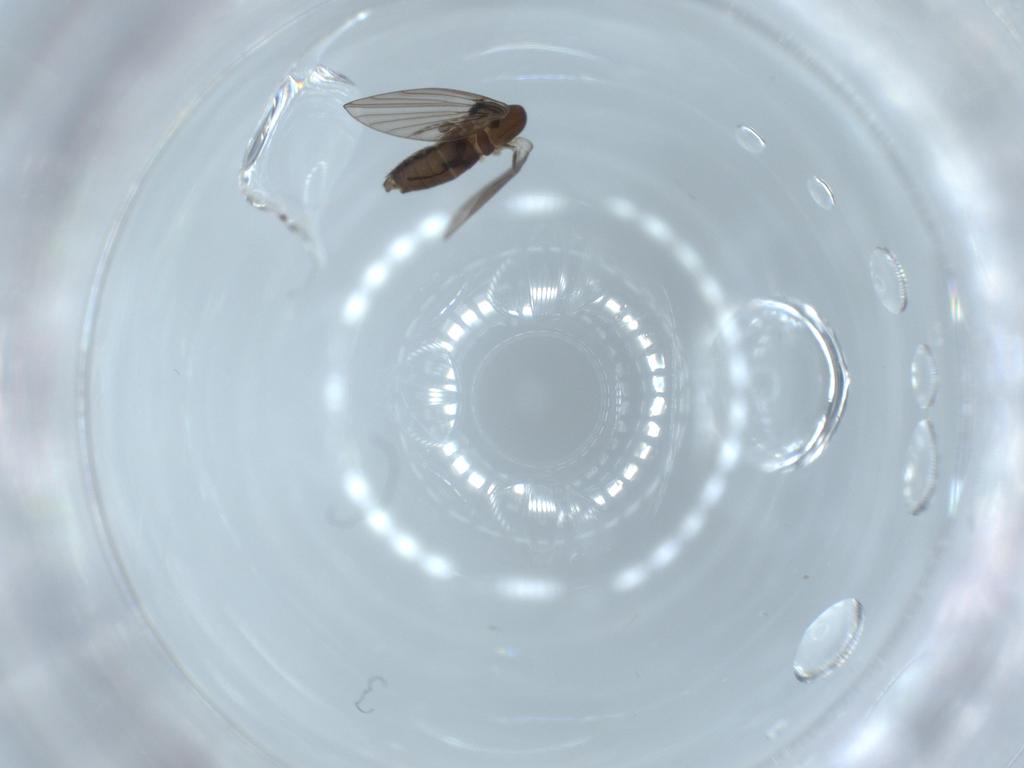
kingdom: Animalia
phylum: Arthropoda
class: Insecta
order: Diptera
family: Psychodidae
